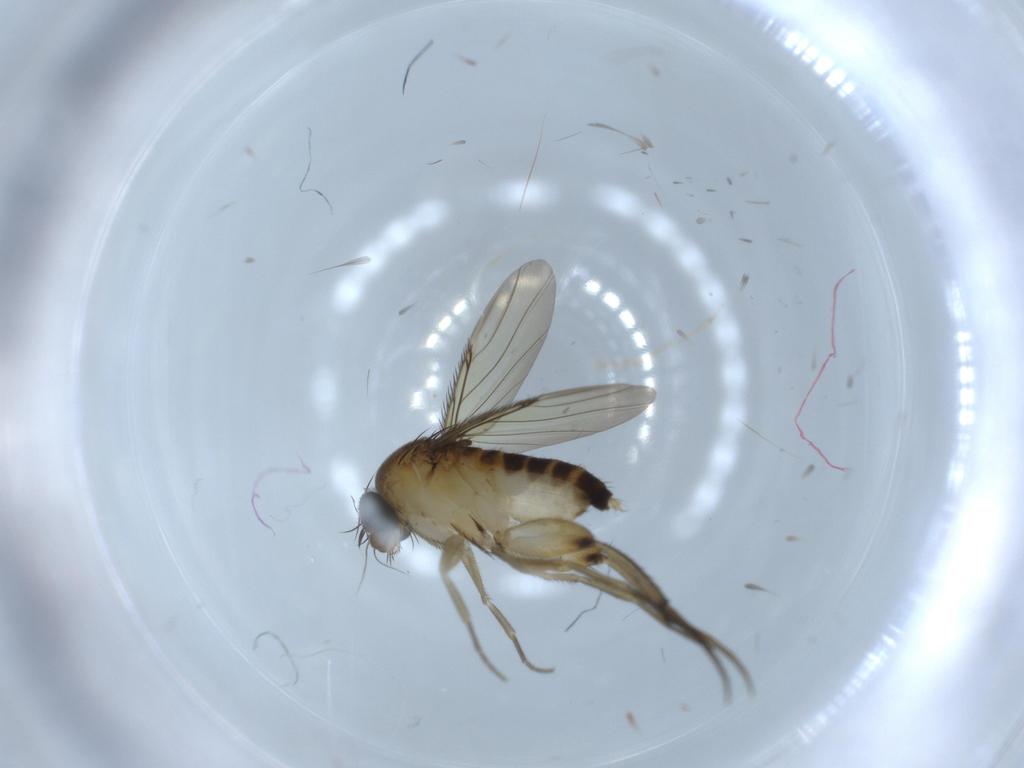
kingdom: Animalia
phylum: Arthropoda
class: Insecta
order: Diptera
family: Phoridae
